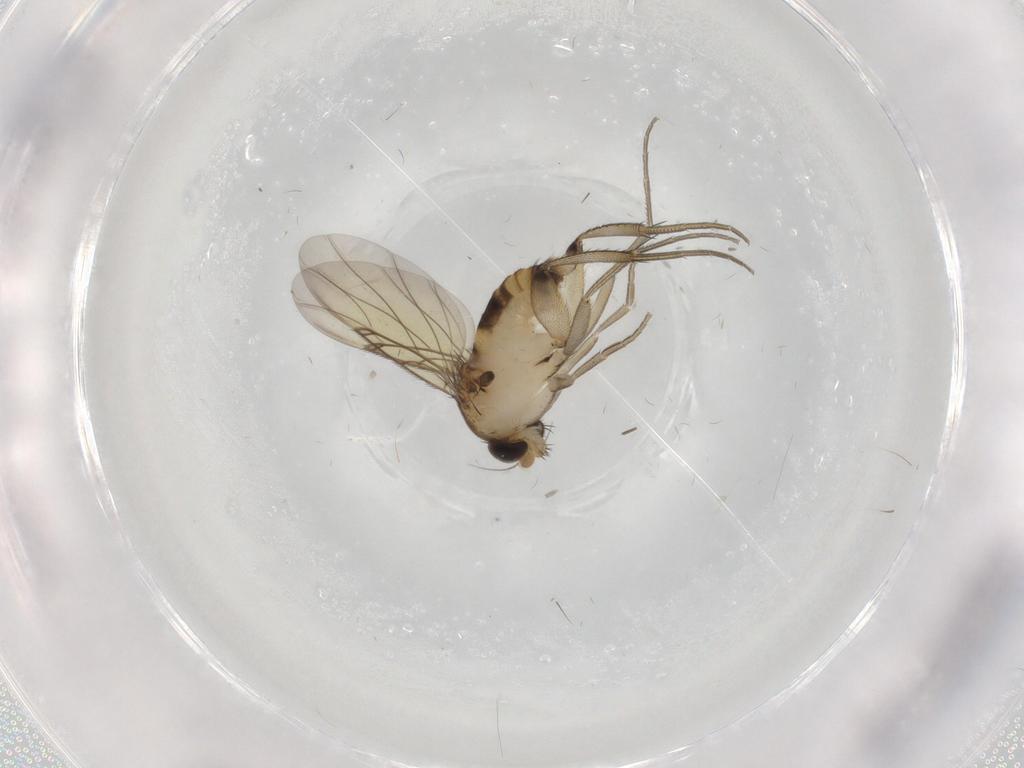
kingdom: Animalia
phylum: Arthropoda
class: Insecta
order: Diptera
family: Phoridae
